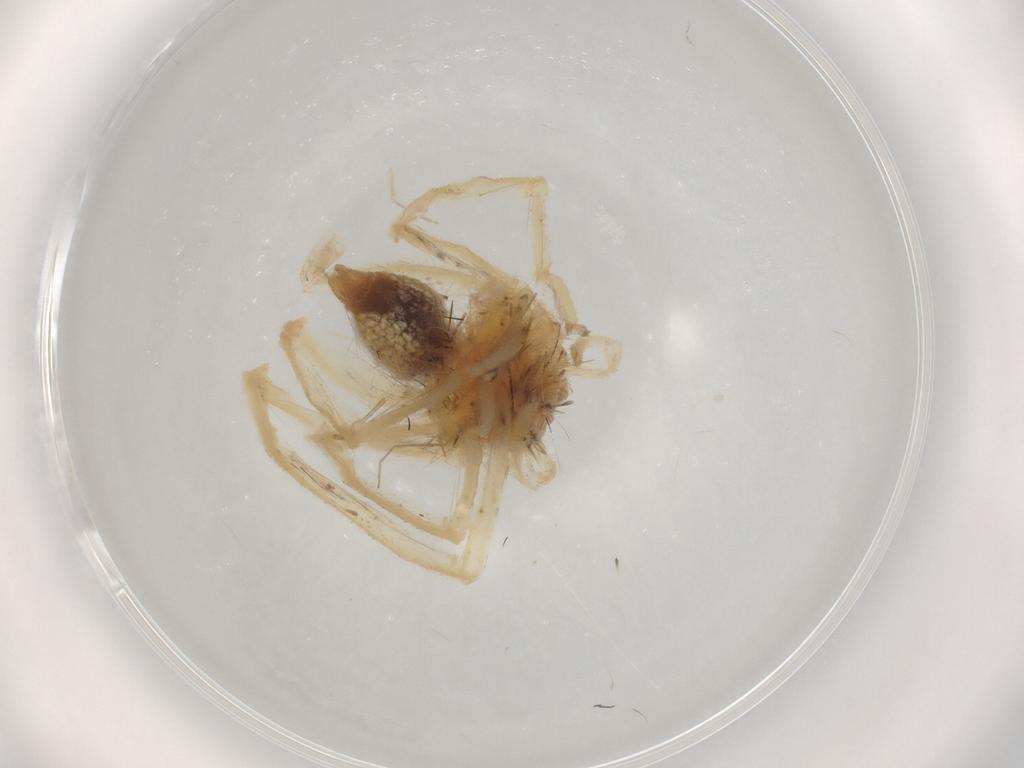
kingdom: Animalia
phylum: Arthropoda
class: Arachnida
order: Araneae
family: Sparassidae
